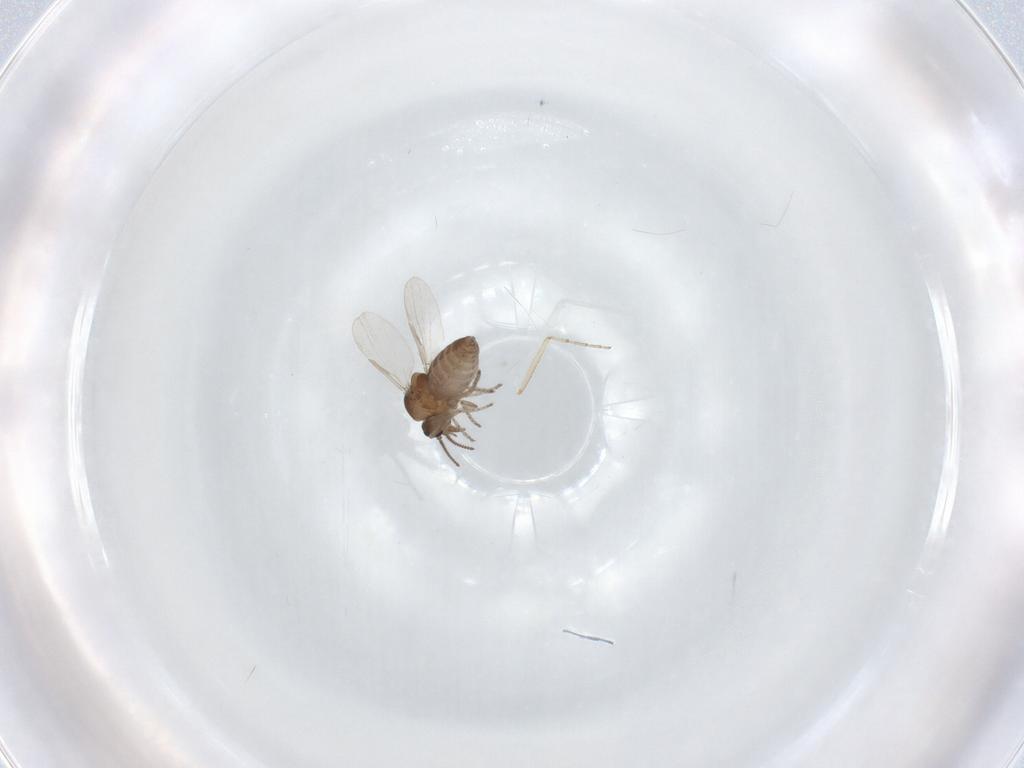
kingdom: Animalia
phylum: Arthropoda
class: Insecta
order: Diptera
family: Ceratopogonidae
